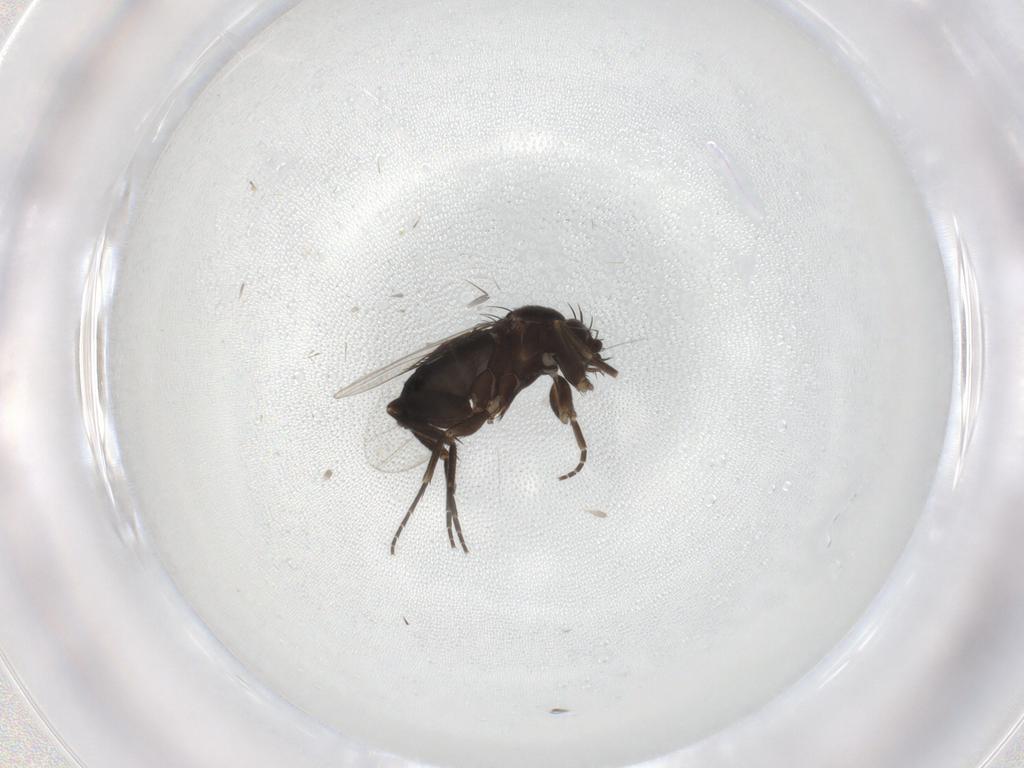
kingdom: Animalia
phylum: Arthropoda
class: Insecta
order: Diptera
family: Phoridae
